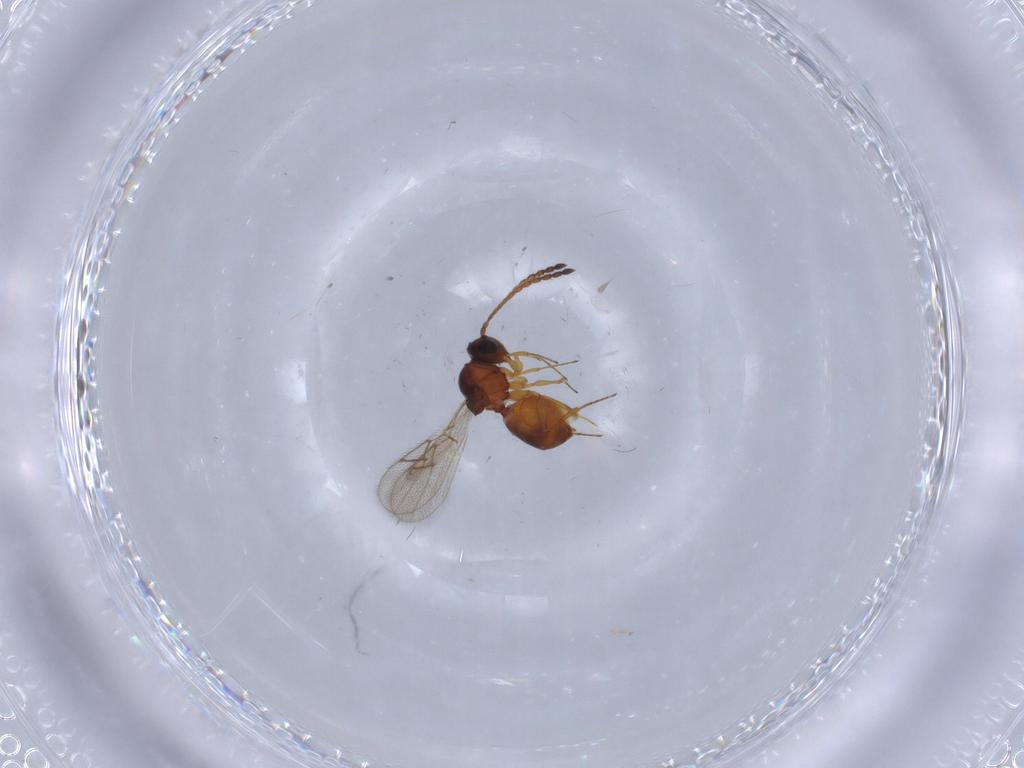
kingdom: Animalia
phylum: Arthropoda
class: Insecta
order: Hymenoptera
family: Figitidae
